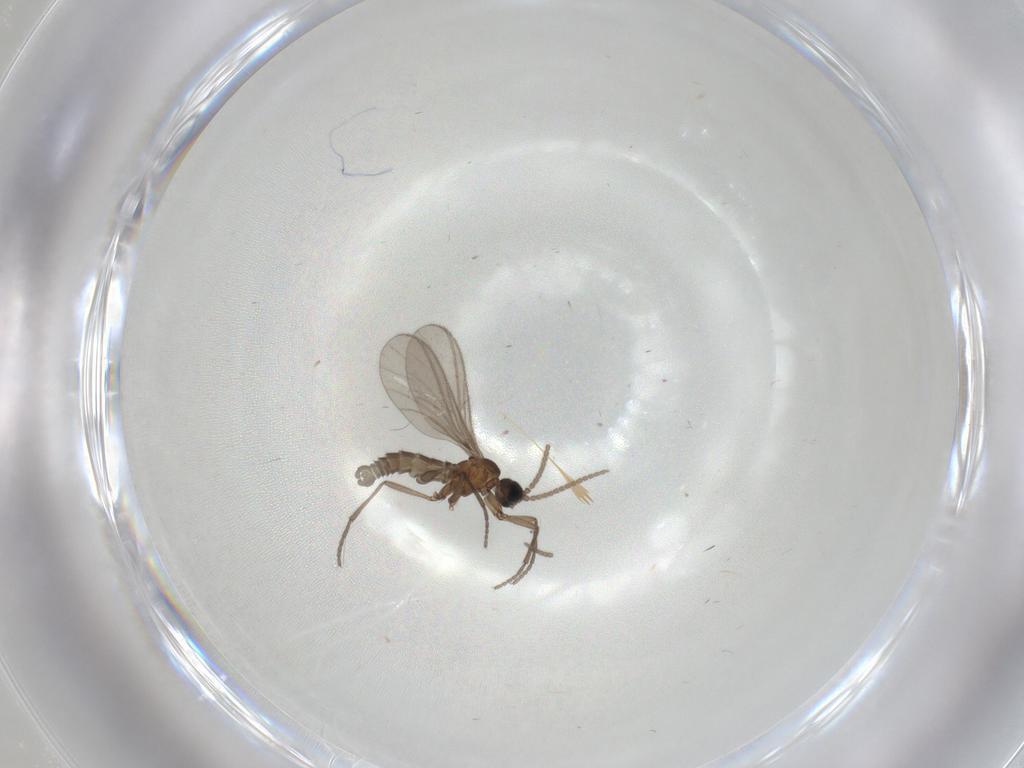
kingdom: Animalia
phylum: Arthropoda
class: Insecta
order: Diptera
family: Sciaridae
